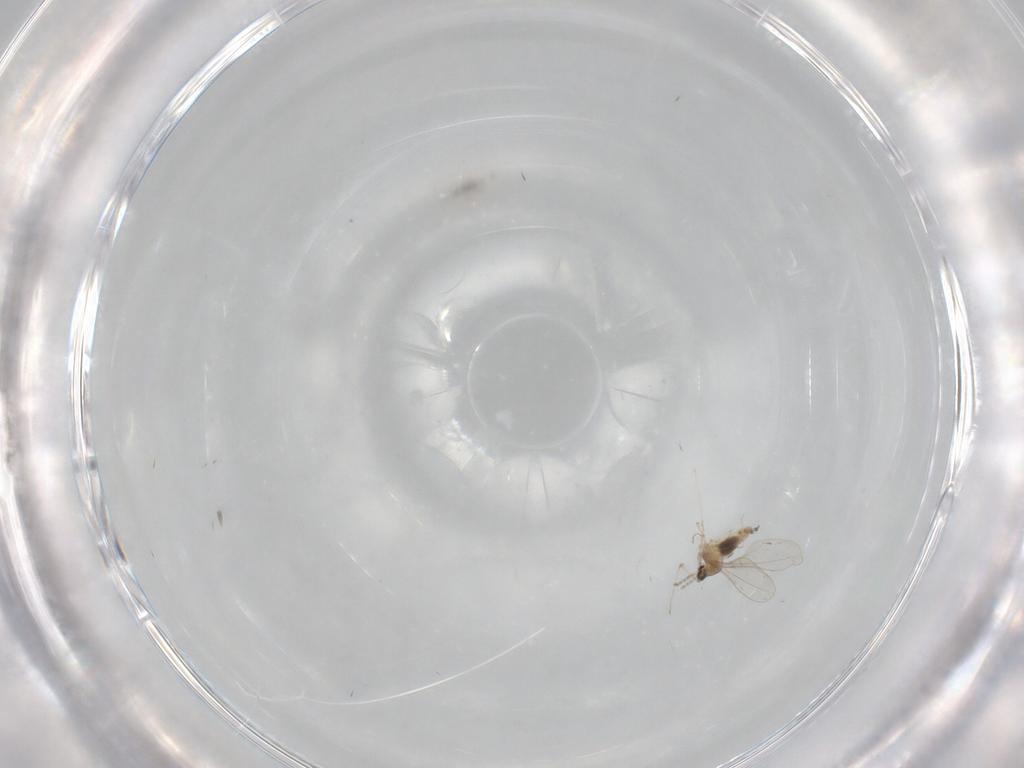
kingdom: Animalia
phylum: Arthropoda
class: Insecta
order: Diptera
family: Cecidomyiidae
